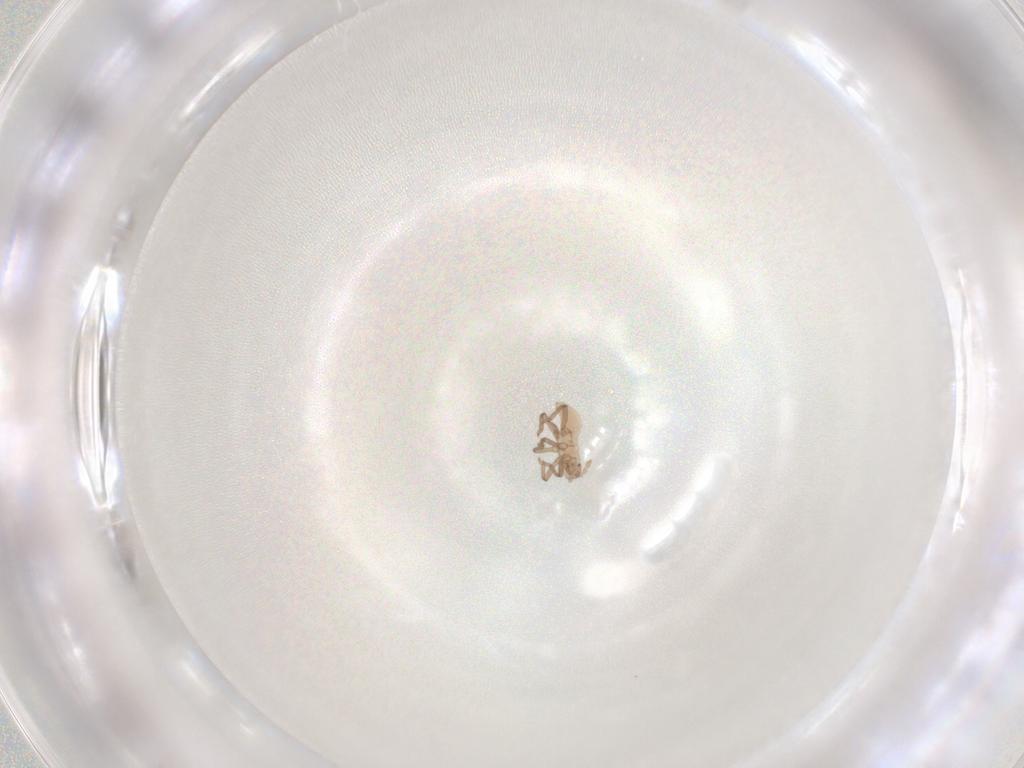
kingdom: Animalia
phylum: Arthropoda
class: Insecta
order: Hemiptera
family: Aphididae
